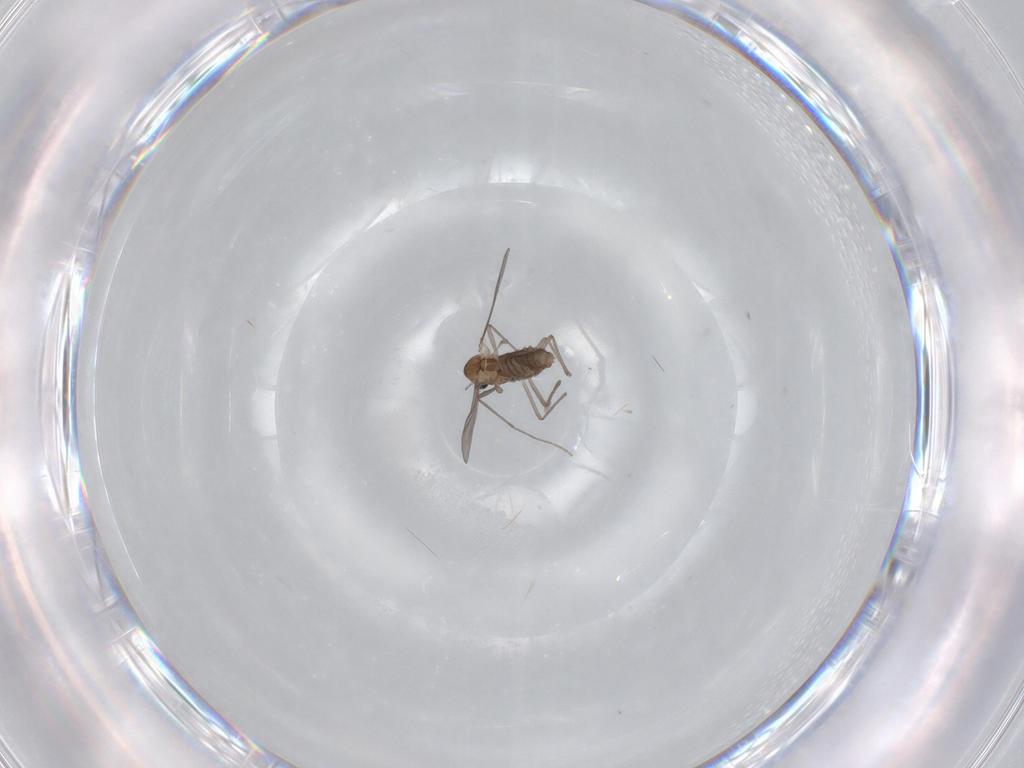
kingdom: Animalia
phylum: Arthropoda
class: Insecta
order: Diptera
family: Chironomidae
